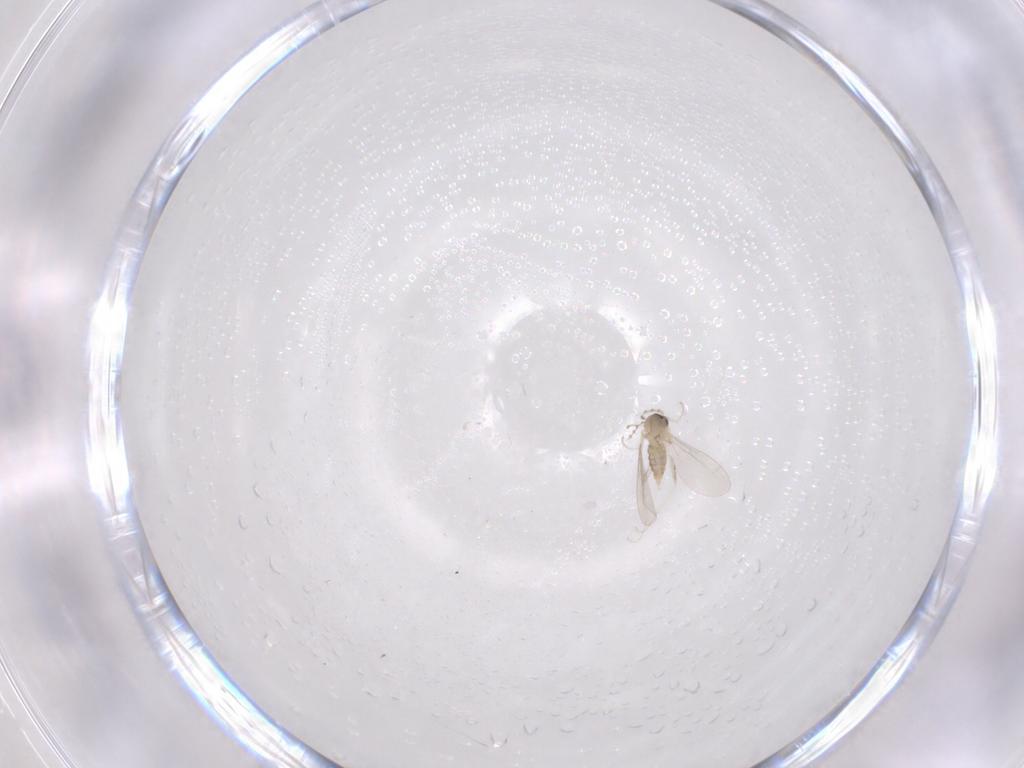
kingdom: Animalia
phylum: Arthropoda
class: Insecta
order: Diptera
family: Cecidomyiidae
